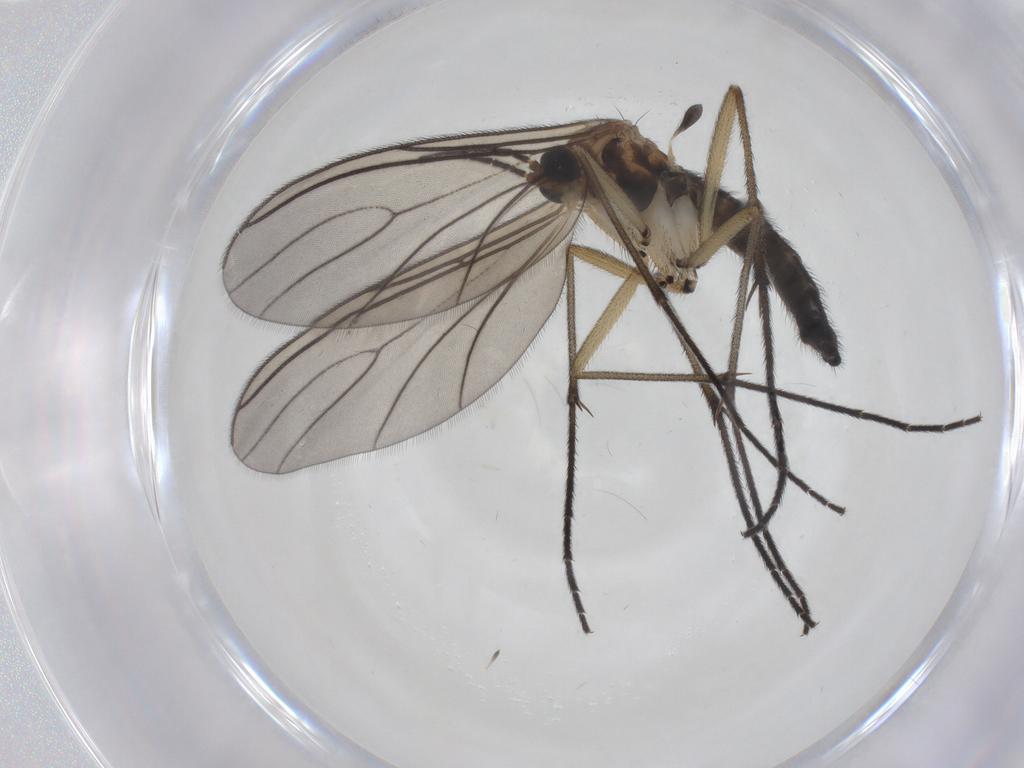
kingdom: Animalia
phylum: Arthropoda
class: Insecta
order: Diptera
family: Sciaridae
